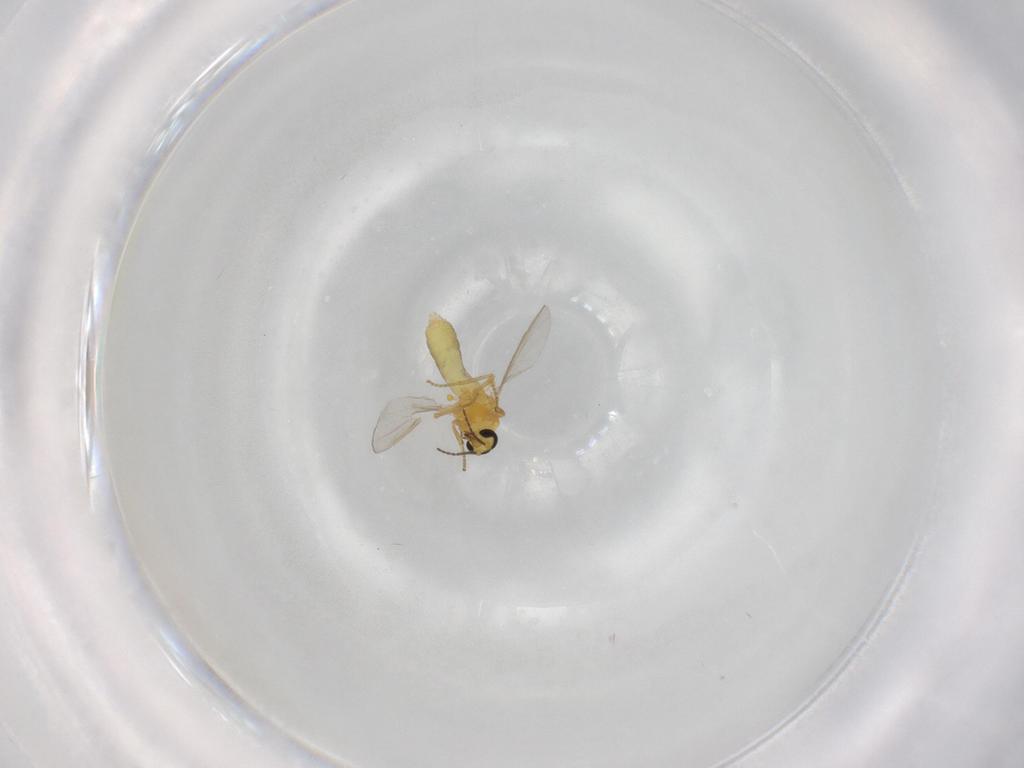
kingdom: Animalia
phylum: Arthropoda
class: Insecta
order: Diptera
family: Ceratopogonidae
